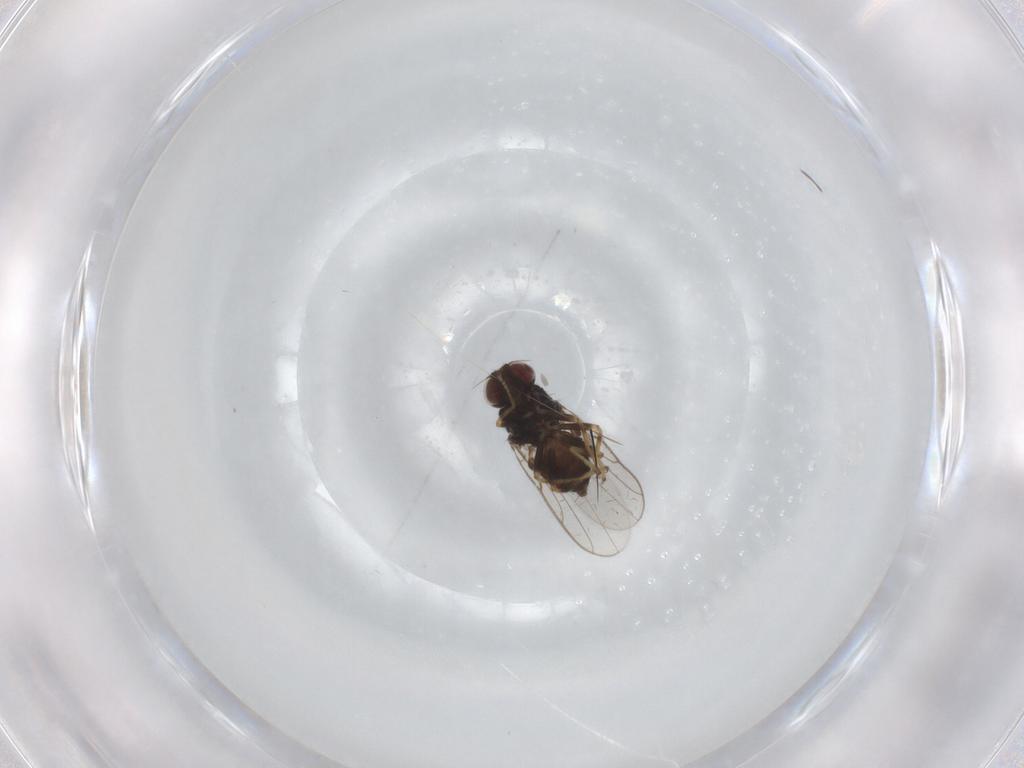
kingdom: Animalia
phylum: Arthropoda
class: Insecta
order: Diptera
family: Chloropidae
